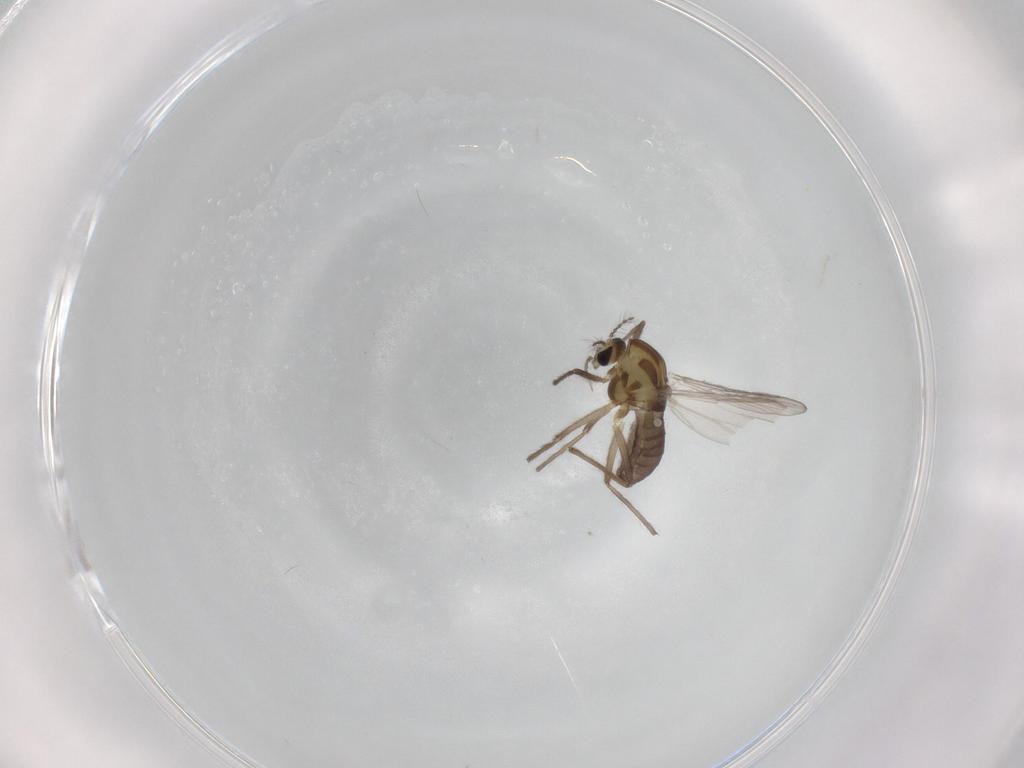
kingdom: Animalia
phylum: Arthropoda
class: Insecta
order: Diptera
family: Chironomidae
